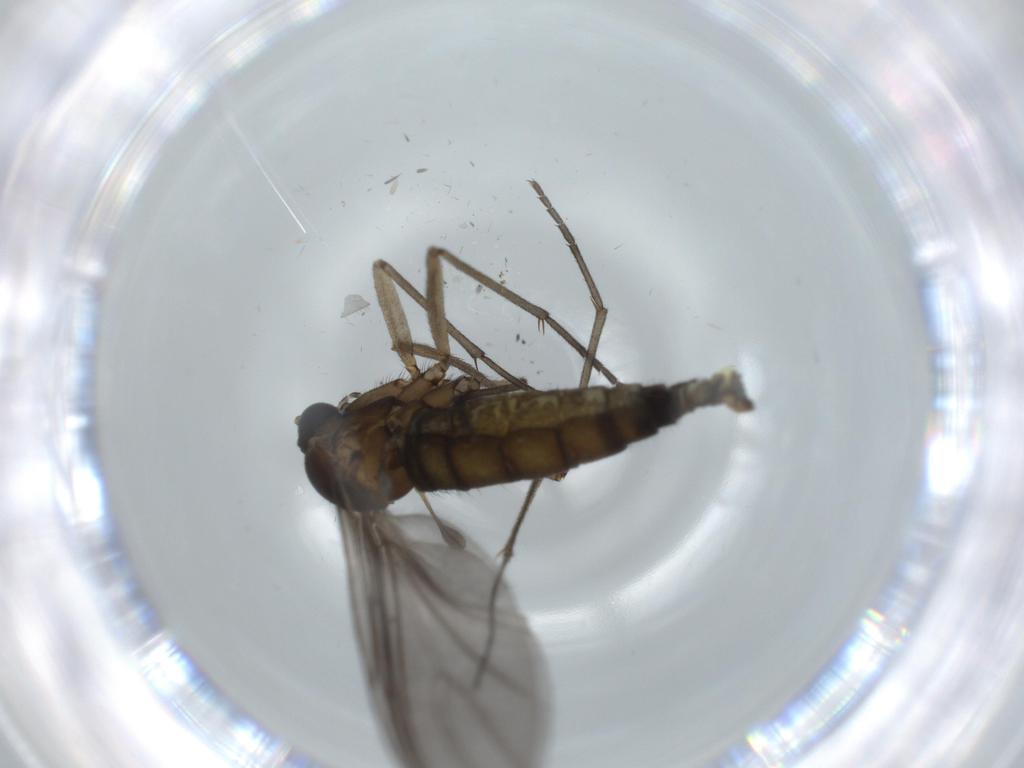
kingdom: Animalia
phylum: Arthropoda
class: Insecta
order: Diptera
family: Sciaridae
